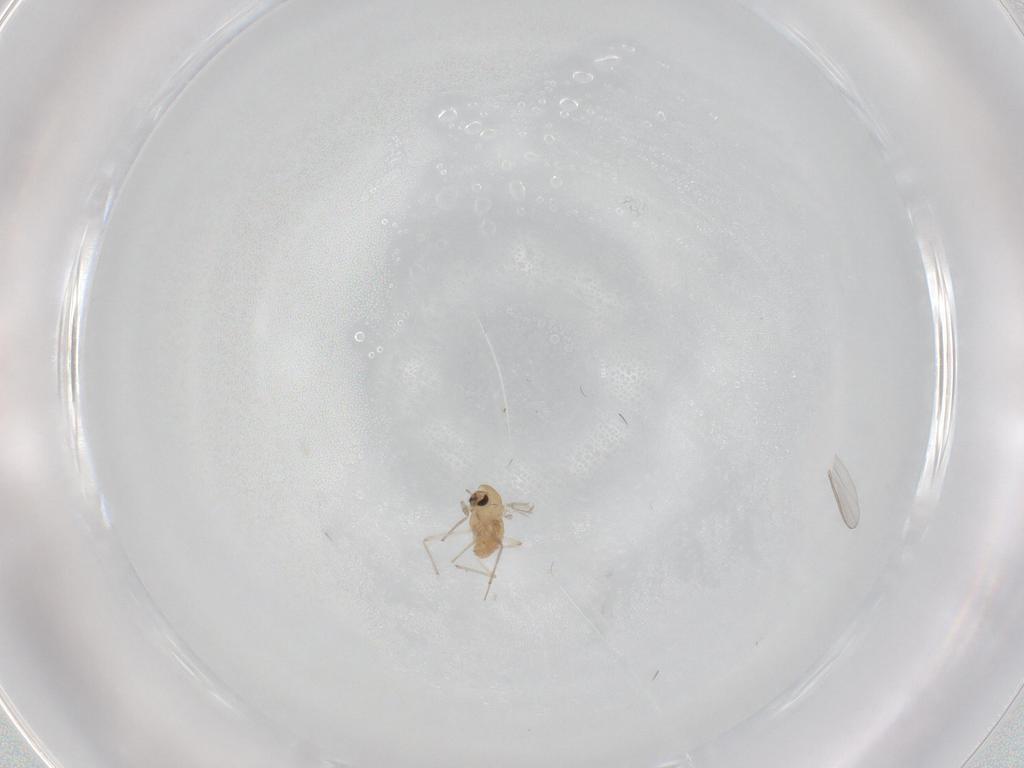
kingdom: Animalia
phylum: Arthropoda
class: Insecta
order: Diptera
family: Chironomidae
